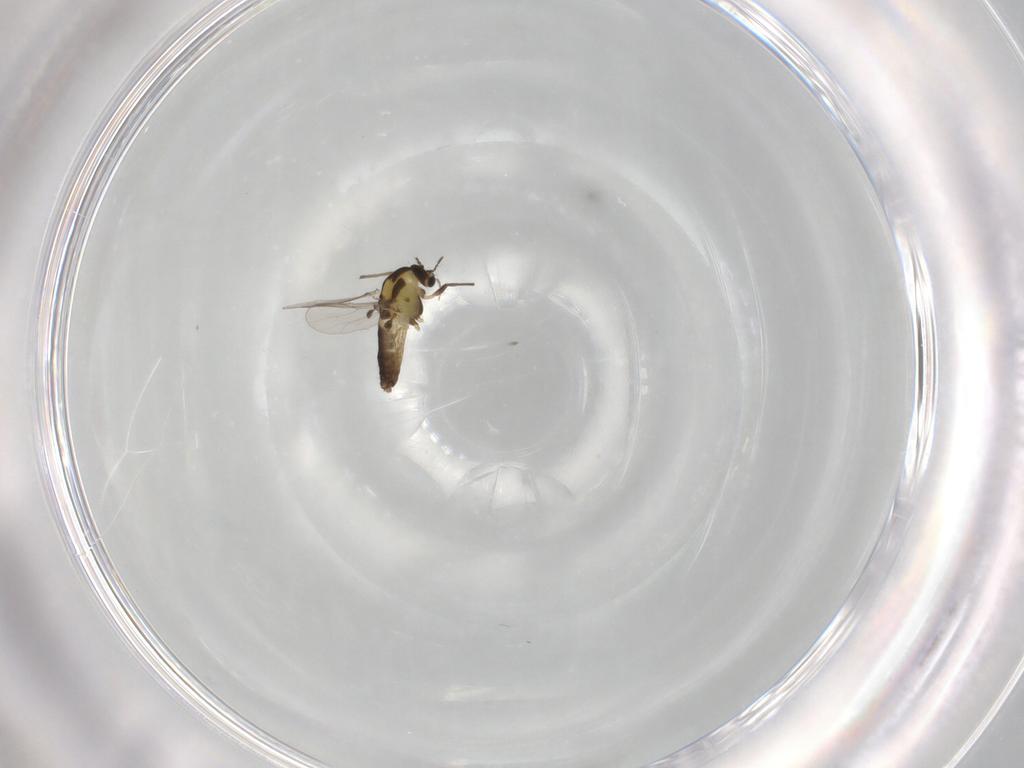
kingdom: Animalia
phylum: Arthropoda
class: Insecta
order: Diptera
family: Chironomidae
